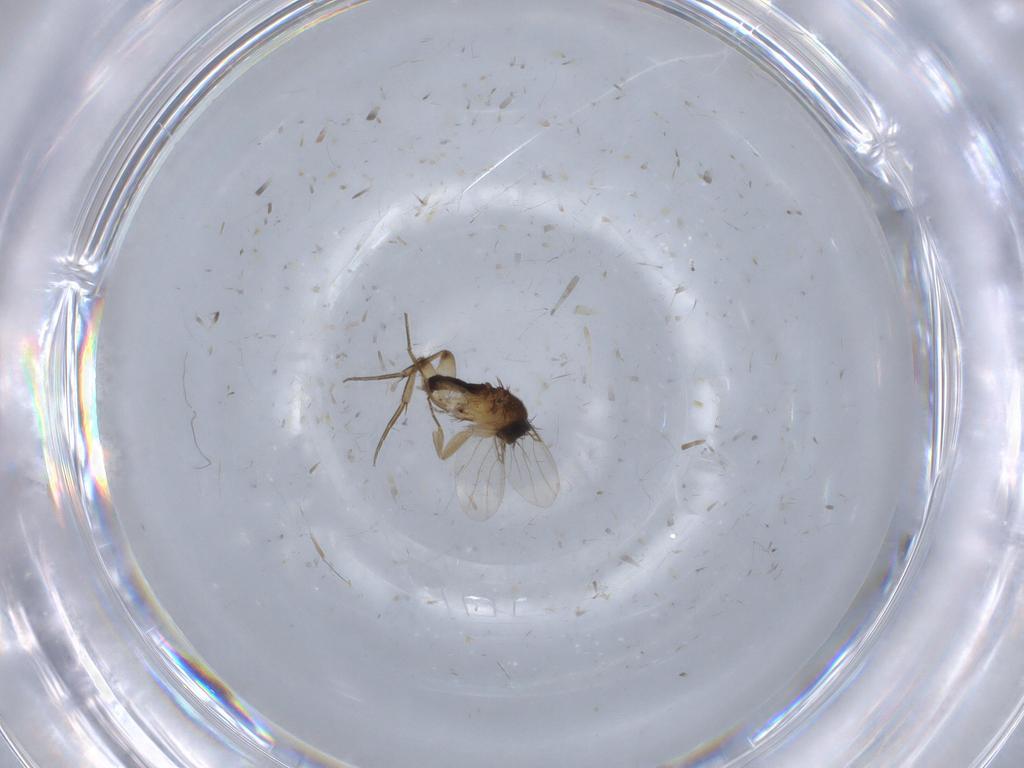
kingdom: Animalia
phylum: Arthropoda
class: Insecta
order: Diptera
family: Phoridae
